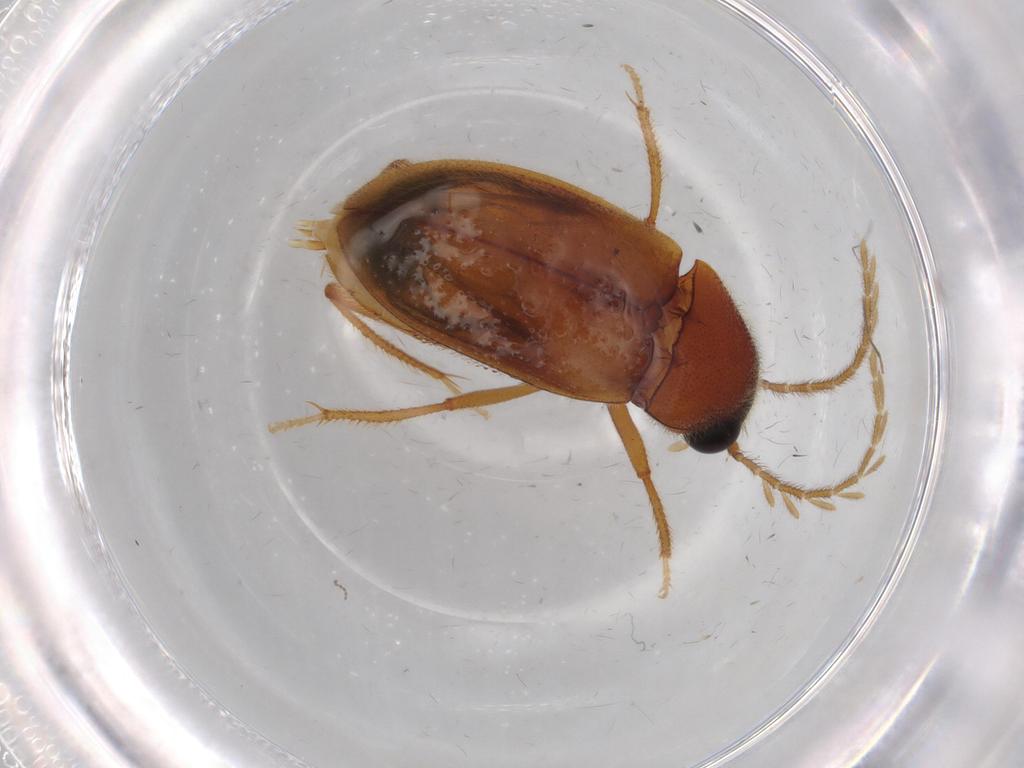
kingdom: Animalia
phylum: Arthropoda
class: Insecta
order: Coleoptera
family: Ptilodactylidae
